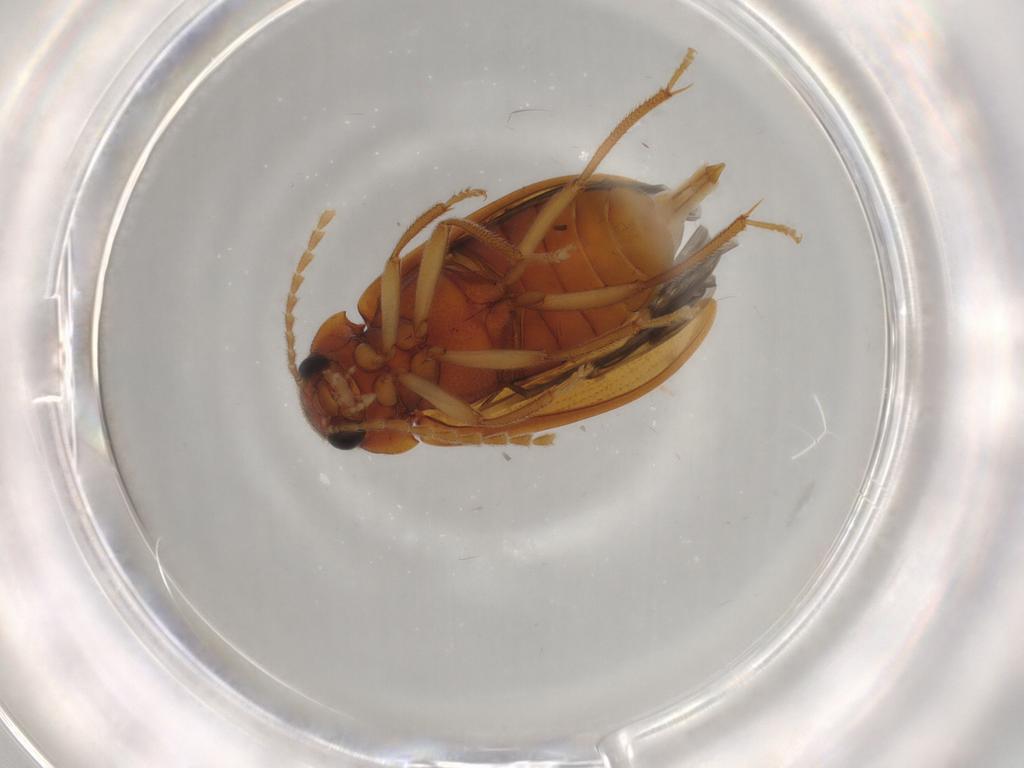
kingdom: Animalia
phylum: Arthropoda
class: Insecta
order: Coleoptera
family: Ptilodactylidae
